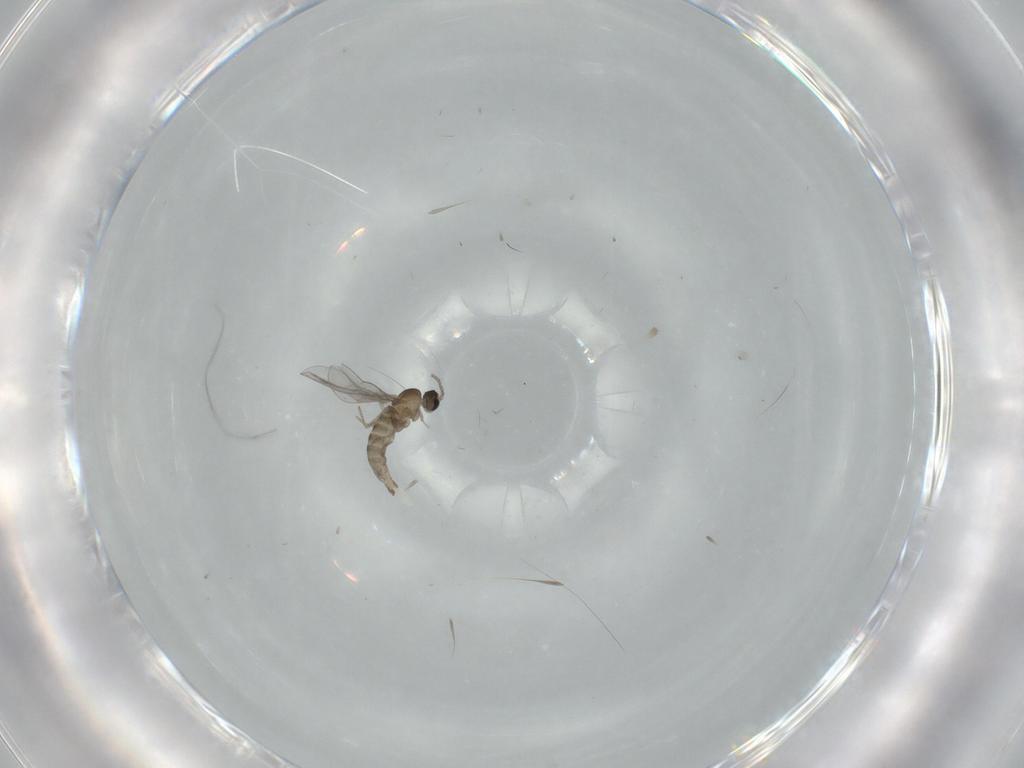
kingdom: Animalia
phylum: Arthropoda
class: Insecta
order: Diptera
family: Cecidomyiidae
